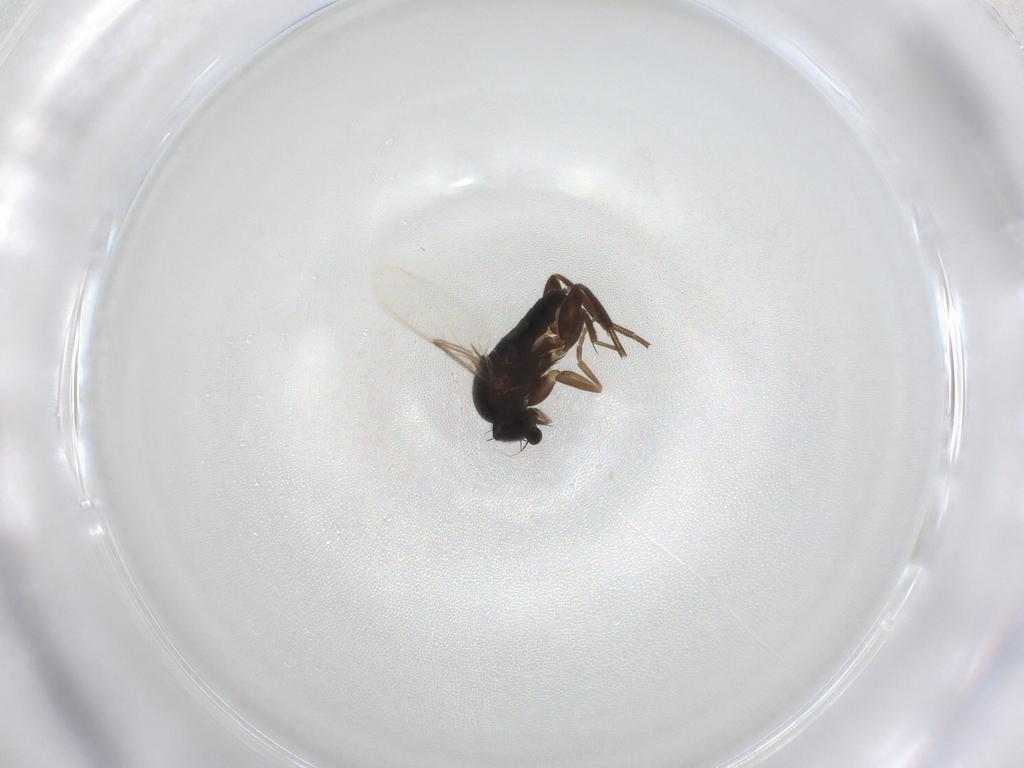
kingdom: Animalia
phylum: Arthropoda
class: Insecta
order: Diptera
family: Phoridae
